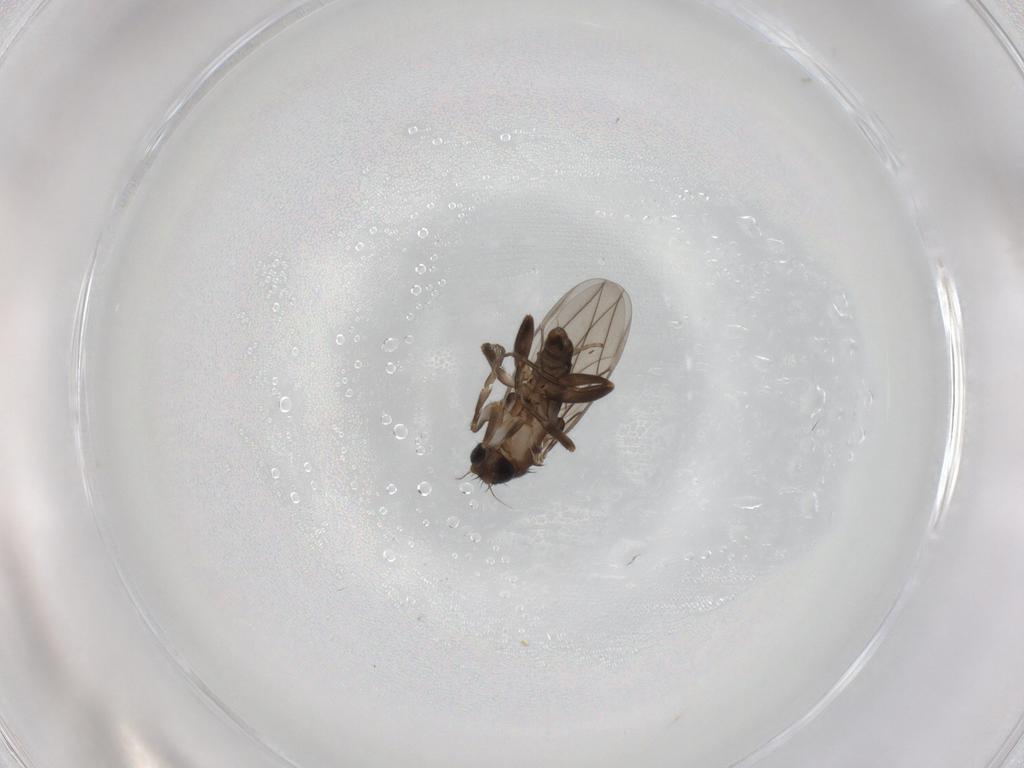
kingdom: Animalia
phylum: Arthropoda
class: Insecta
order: Diptera
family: Phoridae
